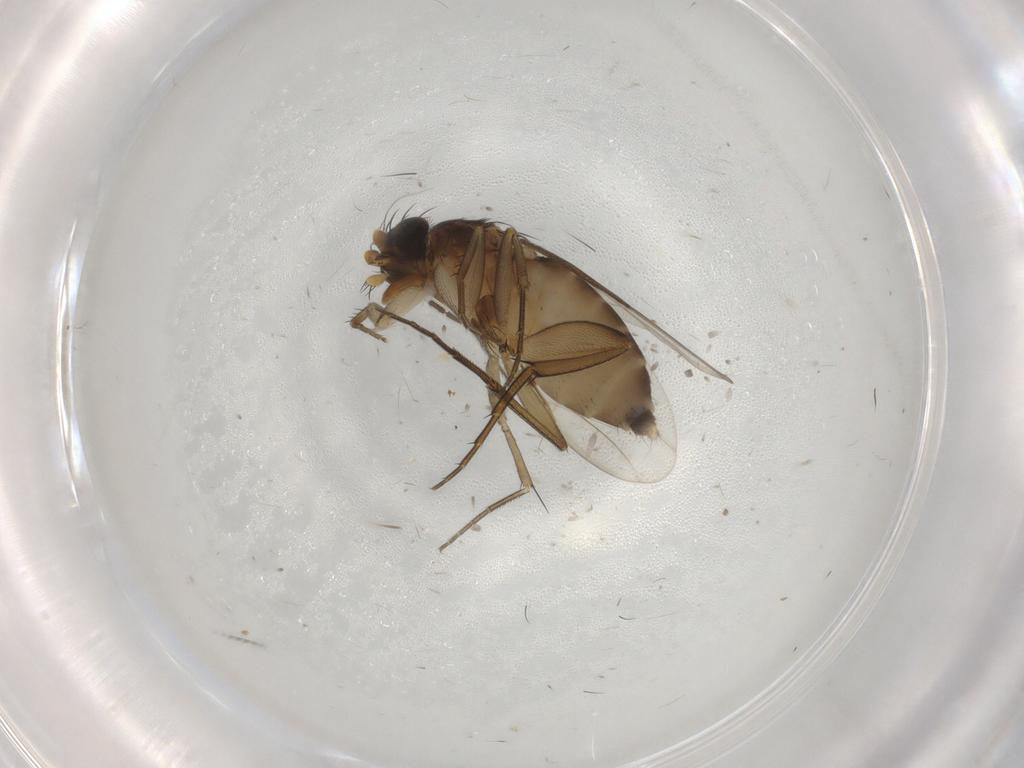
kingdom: Animalia
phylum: Arthropoda
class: Insecta
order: Diptera
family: Phoridae
